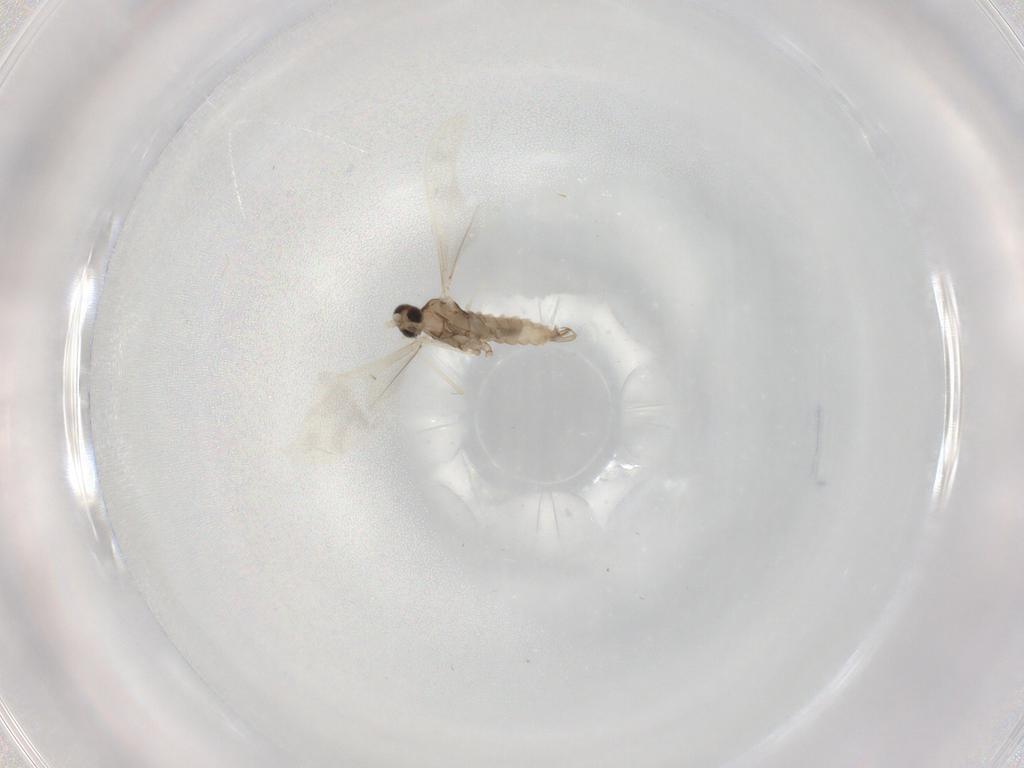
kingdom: Animalia
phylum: Arthropoda
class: Insecta
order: Diptera
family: Cecidomyiidae
